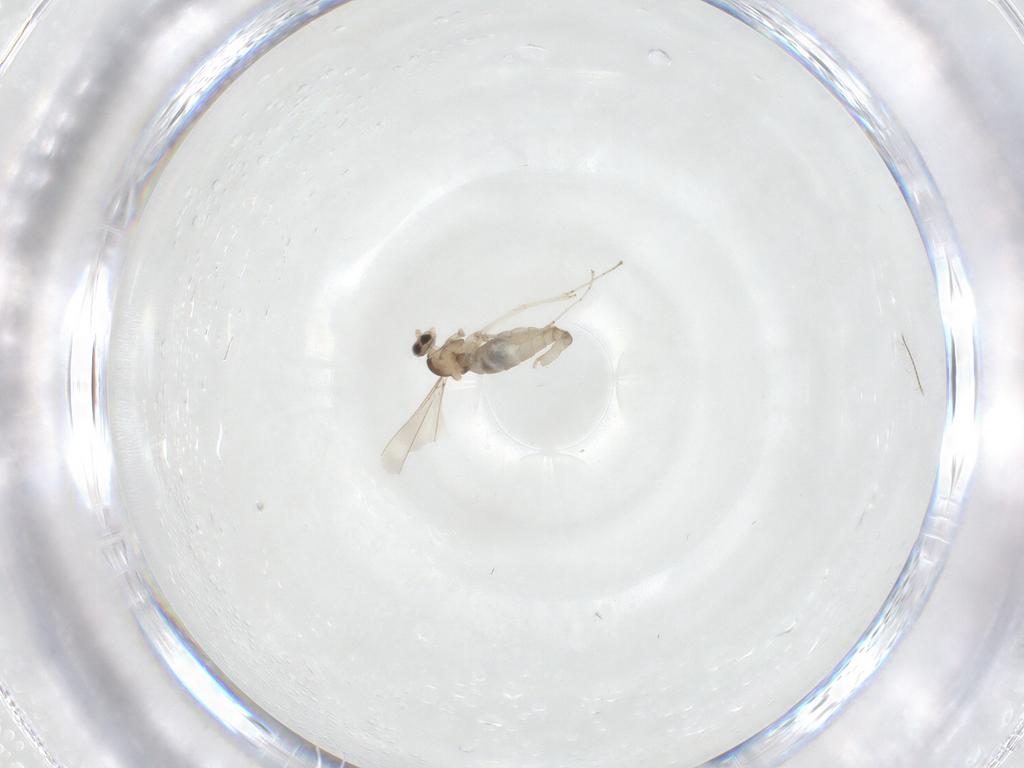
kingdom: Animalia
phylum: Arthropoda
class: Insecta
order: Diptera
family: Cecidomyiidae
